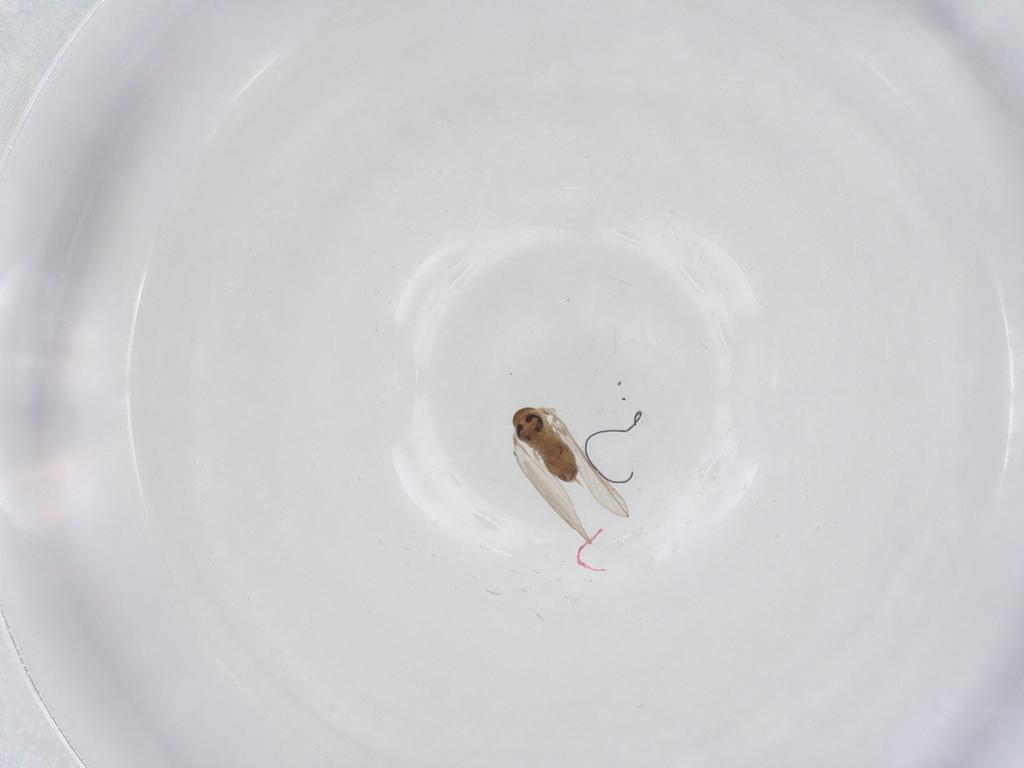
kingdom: Animalia
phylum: Arthropoda
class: Insecta
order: Diptera
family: Psychodidae
